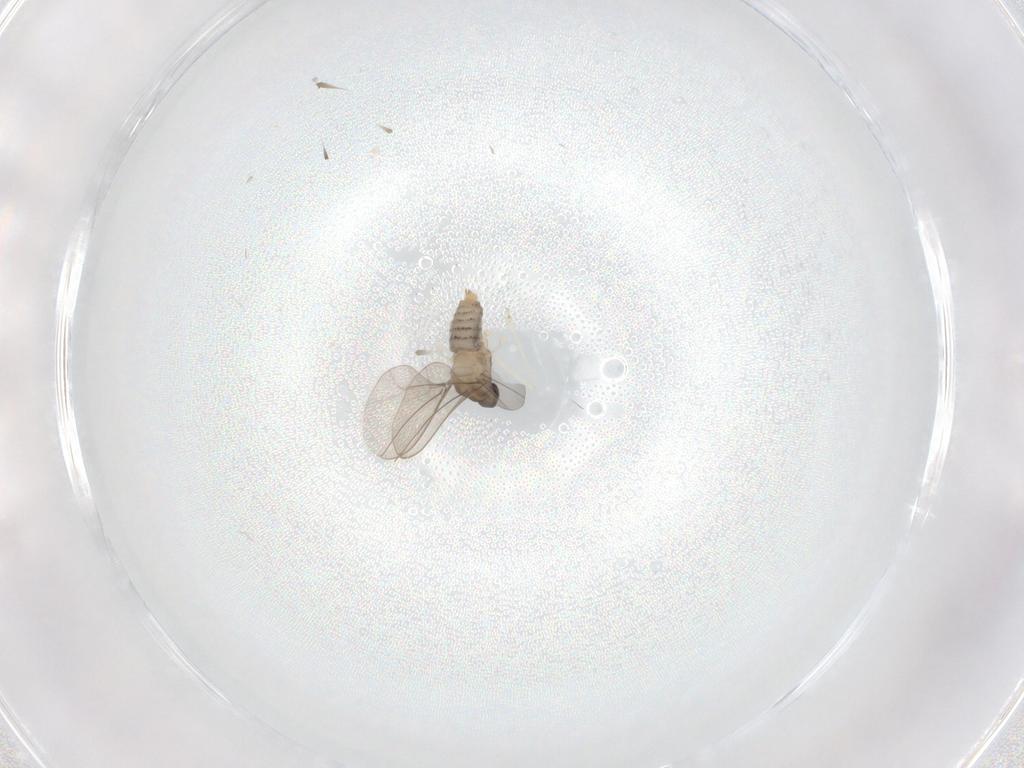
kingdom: Animalia
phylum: Arthropoda
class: Insecta
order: Diptera
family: Cecidomyiidae
